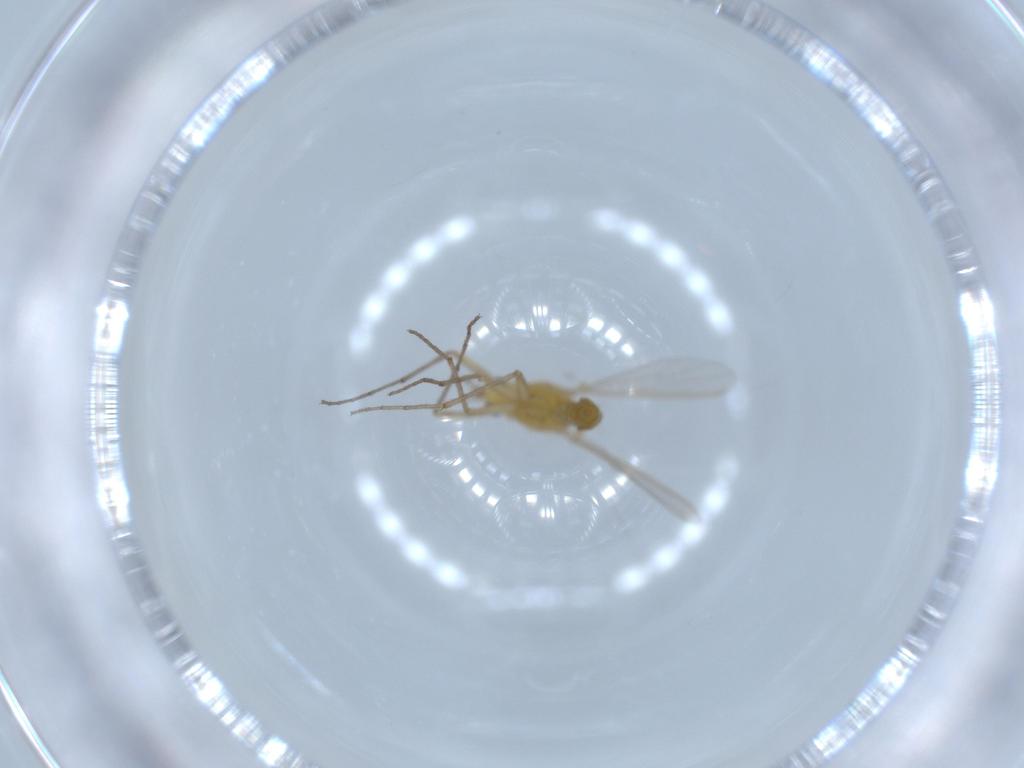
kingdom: Animalia
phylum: Arthropoda
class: Insecta
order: Diptera
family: Chironomidae
